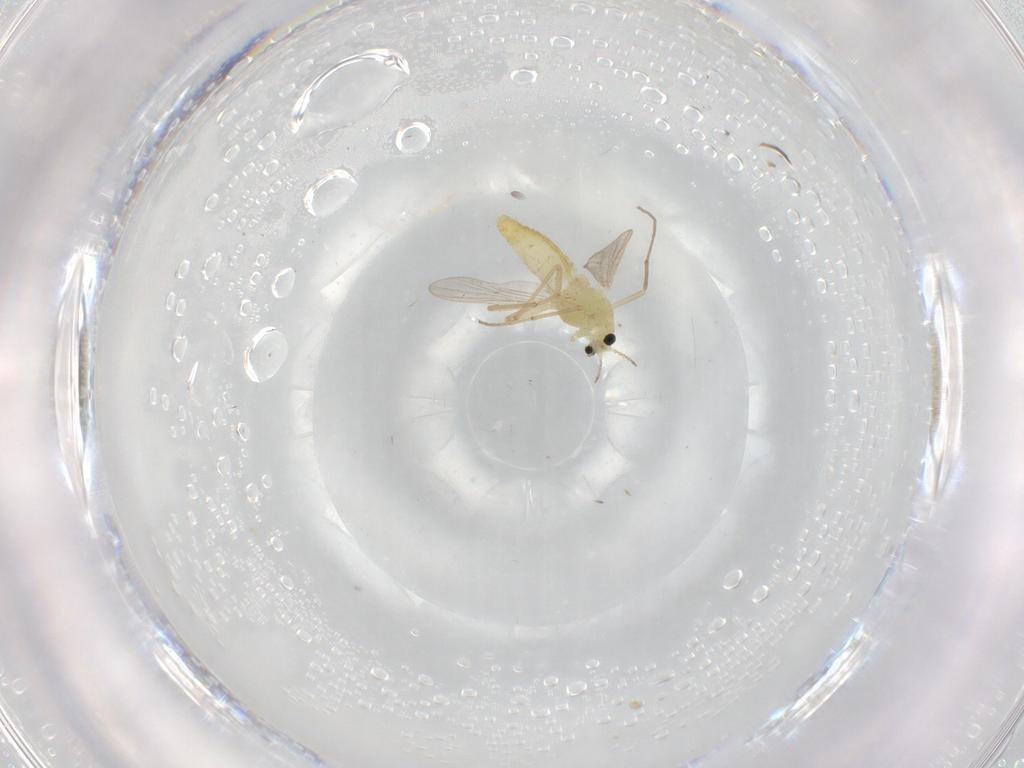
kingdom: Animalia
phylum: Arthropoda
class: Insecta
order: Diptera
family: Chironomidae
